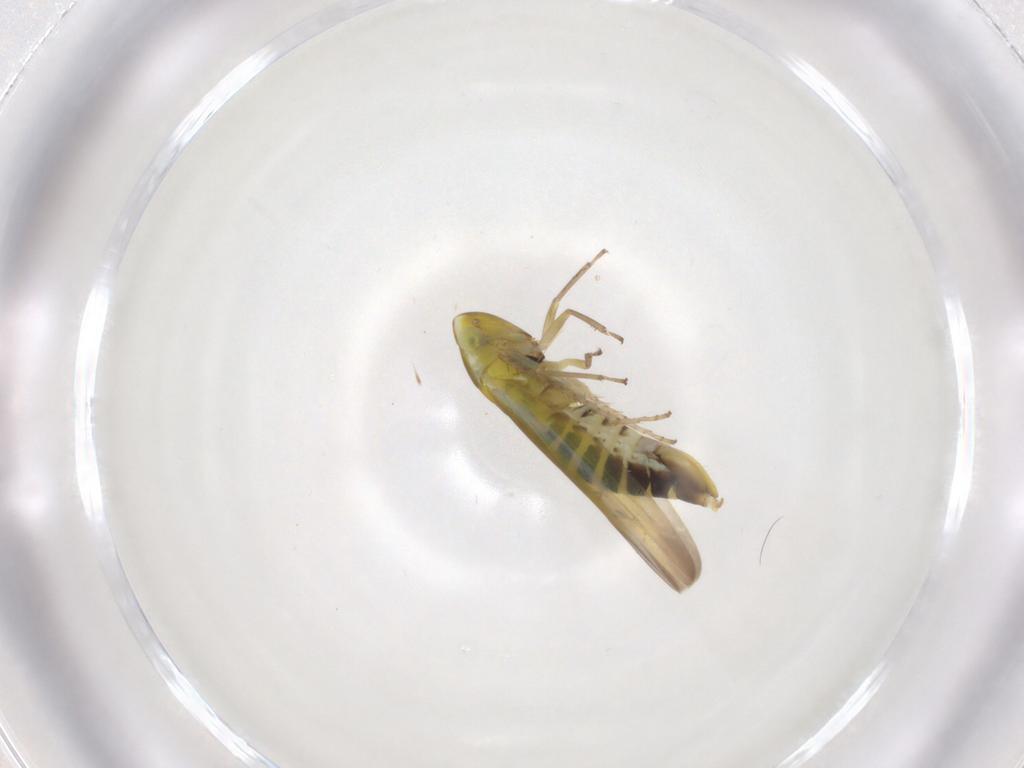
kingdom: Animalia
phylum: Arthropoda
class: Insecta
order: Hemiptera
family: Cicadellidae
